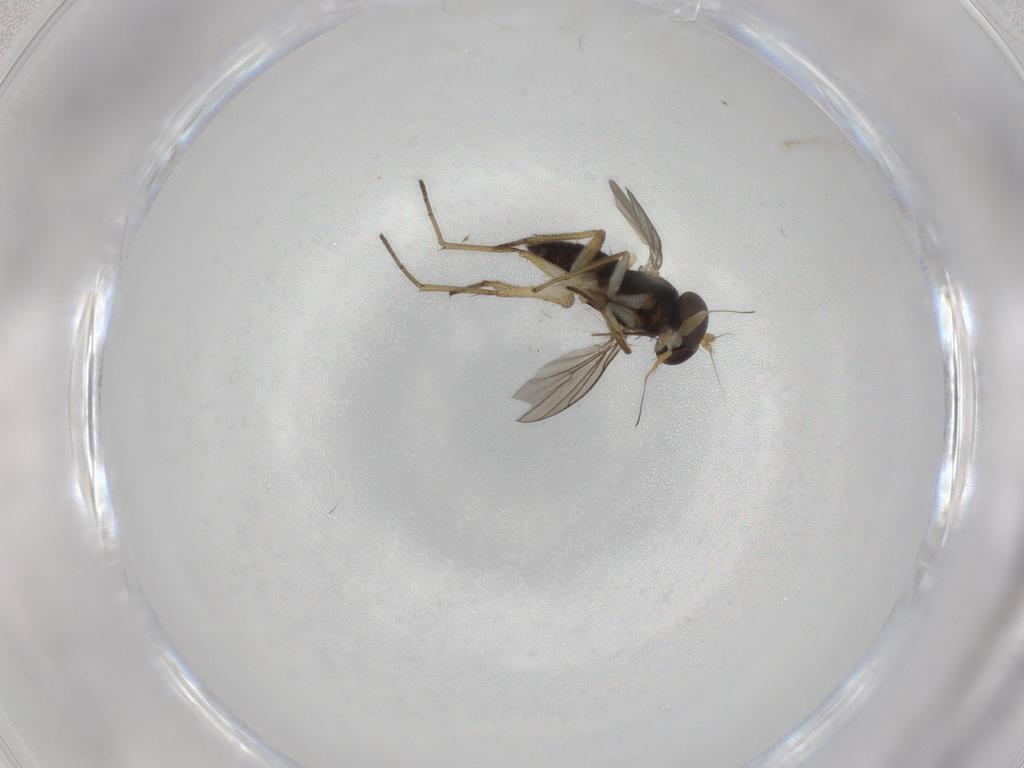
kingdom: Animalia
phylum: Arthropoda
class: Insecta
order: Diptera
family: Dolichopodidae
